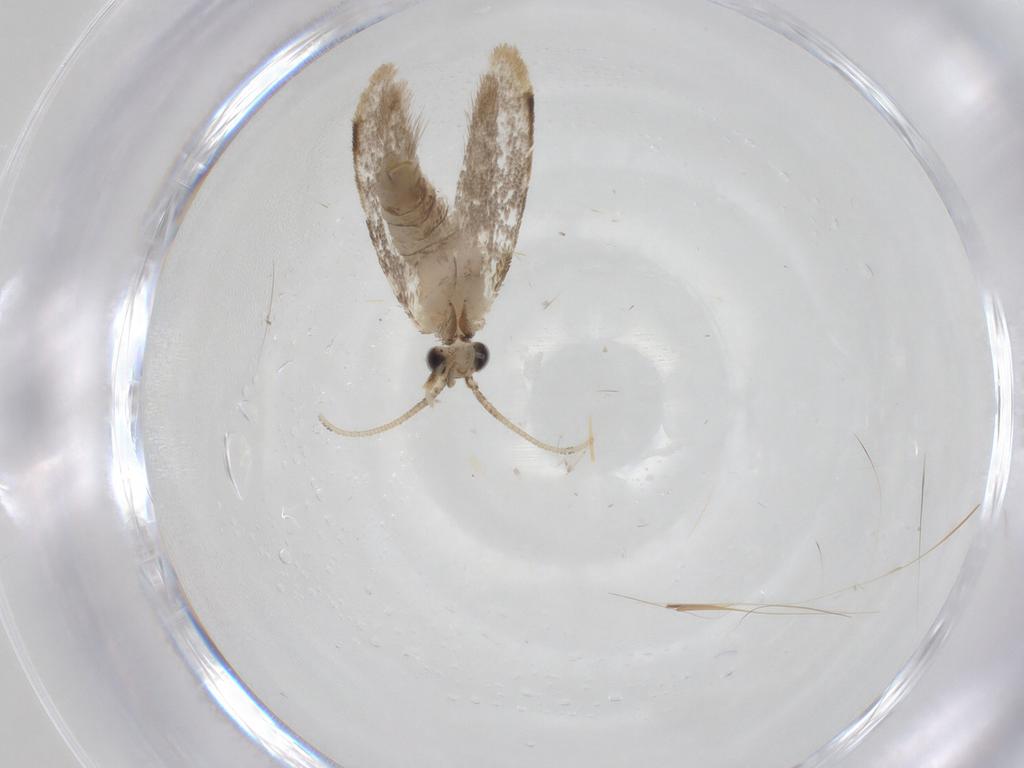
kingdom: Animalia
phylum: Arthropoda
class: Insecta
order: Lepidoptera
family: Dryadaulidae
